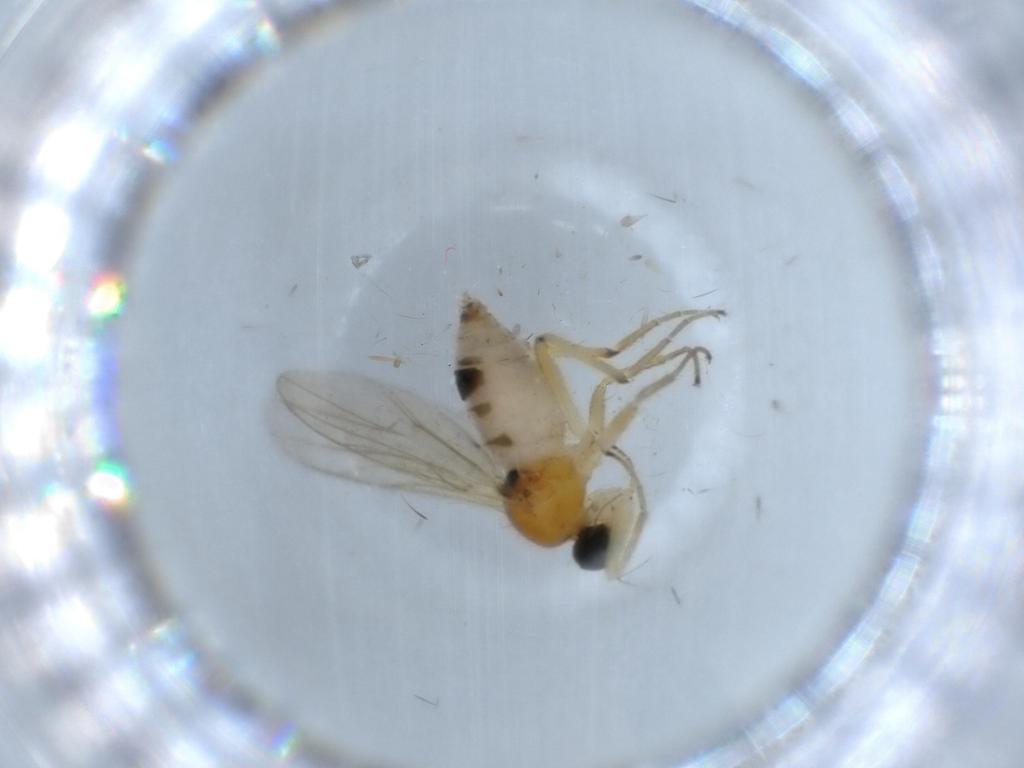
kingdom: Animalia
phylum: Arthropoda
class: Insecta
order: Diptera
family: Hybotidae
